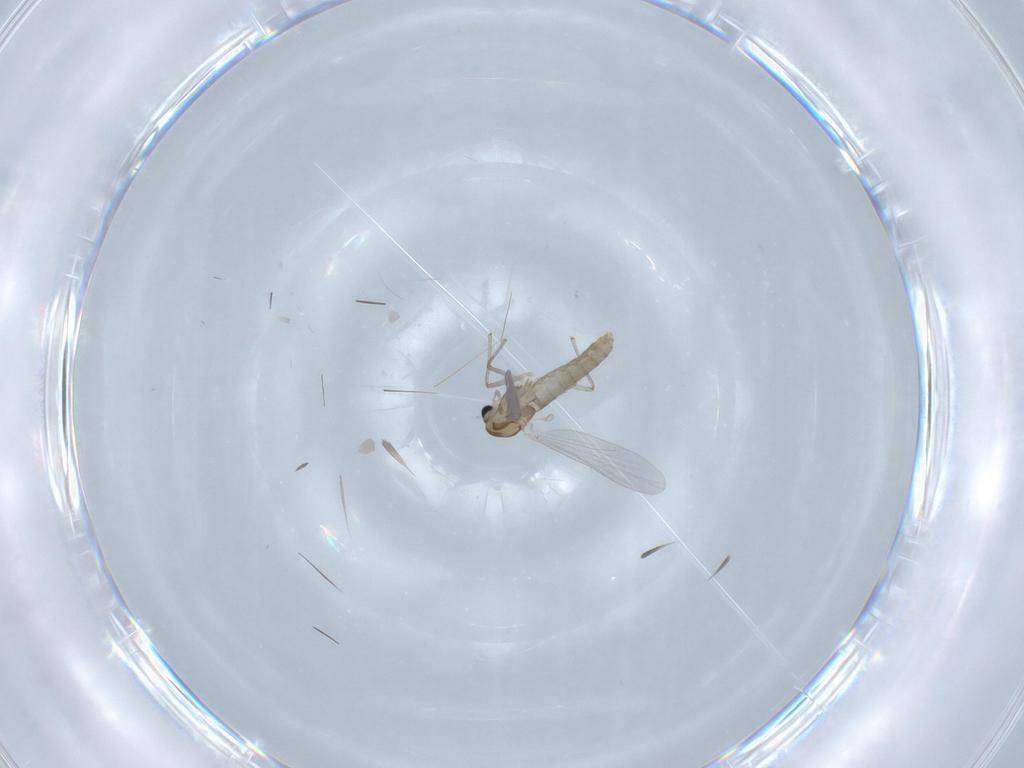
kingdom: Animalia
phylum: Arthropoda
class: Insecta
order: Diptera
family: Chironomidae
